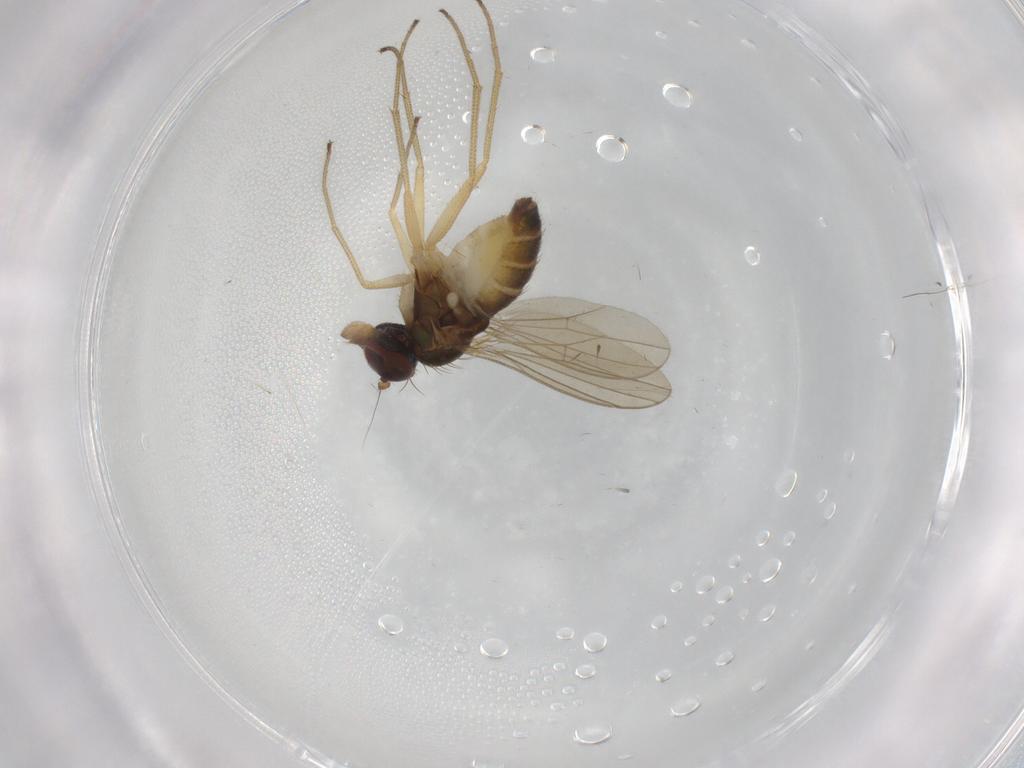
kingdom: Animalia
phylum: Arthropoda
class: Insecta
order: Diptera
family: Dolichopodidae
